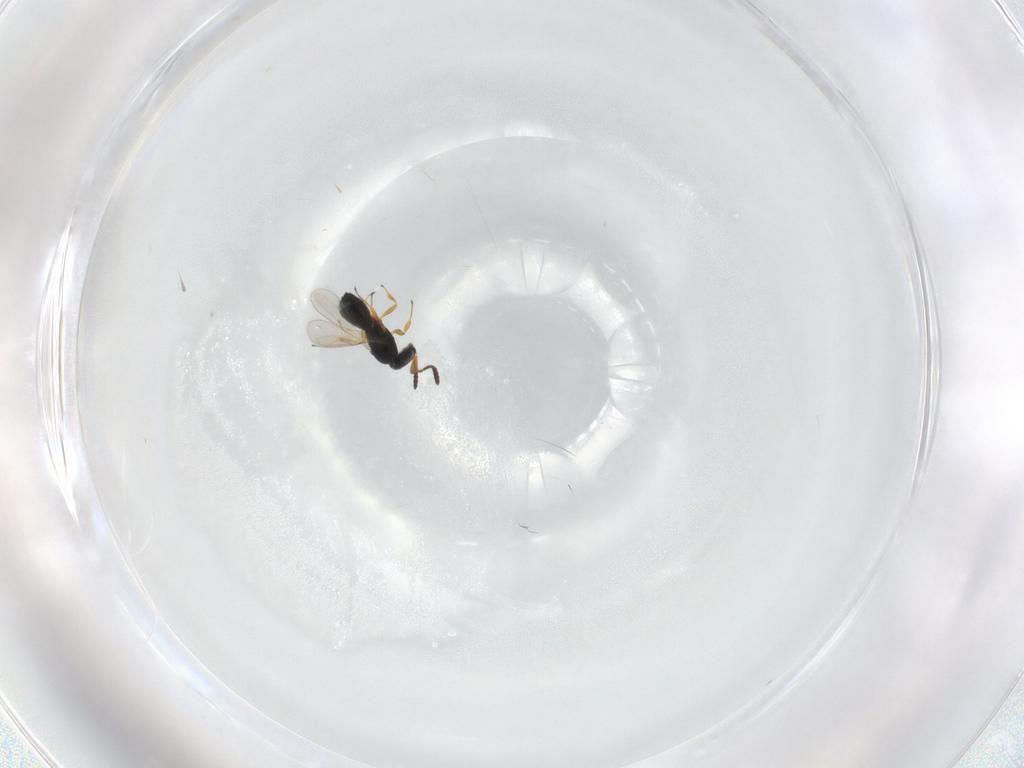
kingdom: Animalia
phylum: Arthropoda
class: Insecta
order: Hymenoptera
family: Scelionidae
